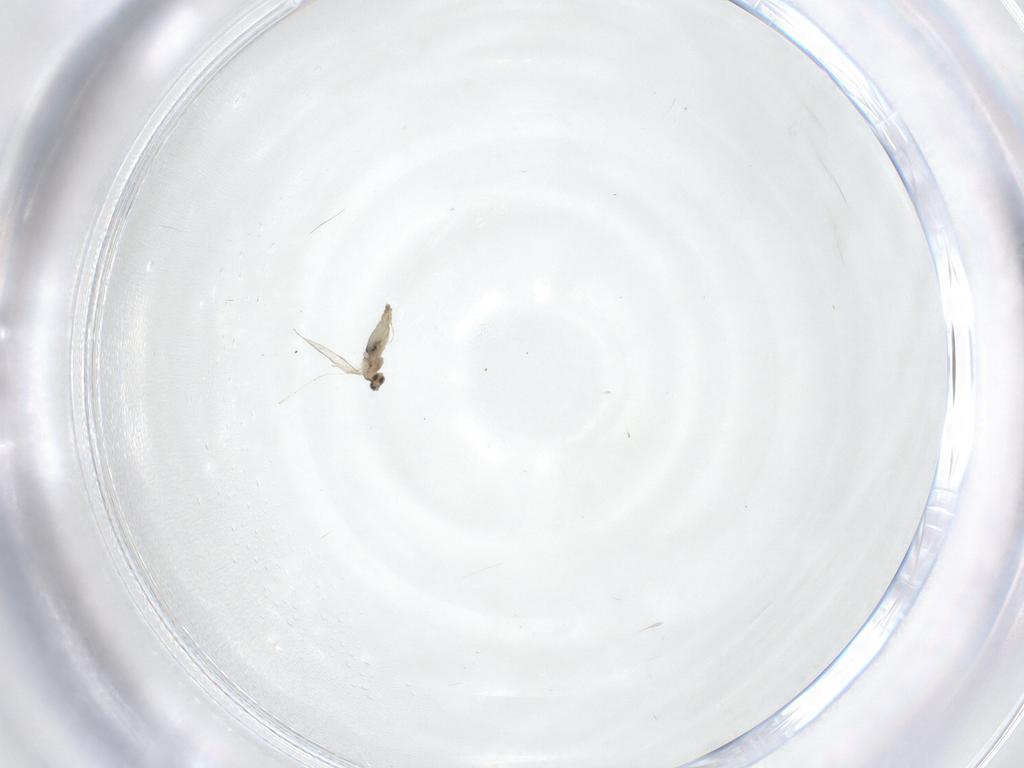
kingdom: Animalia
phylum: Arthropoda
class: Insecta
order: Diptera
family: Cecidomyiidae
